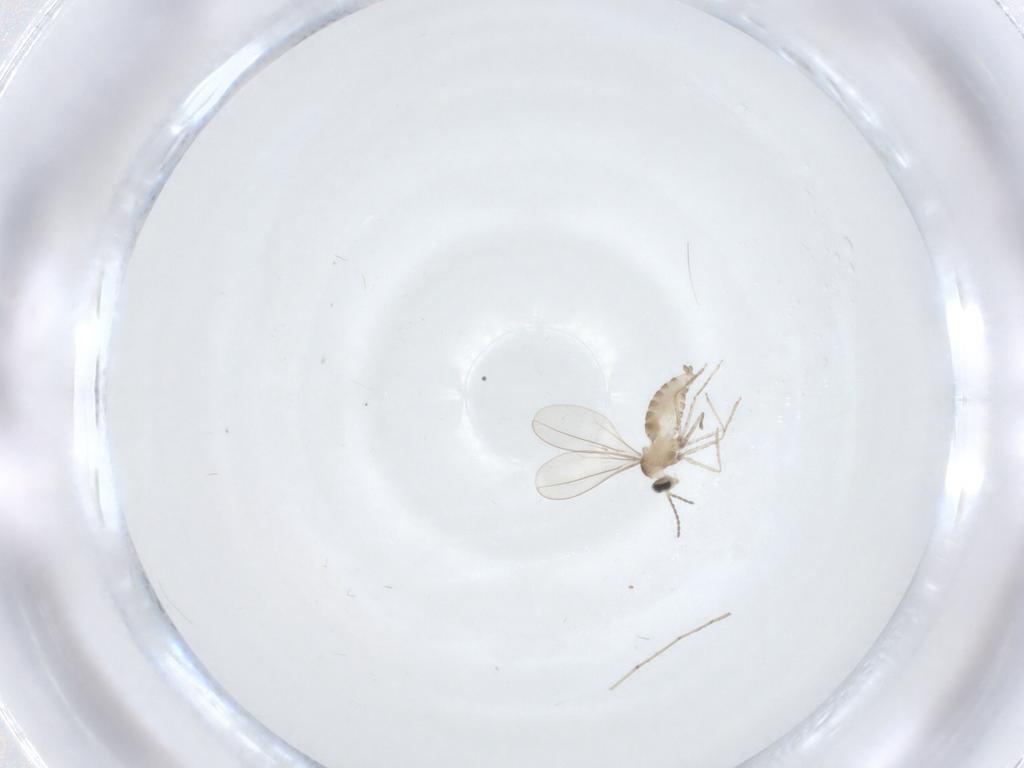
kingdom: Animalia
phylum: Arthropoda
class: Insecta
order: Diptera
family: Cecidomyiidae
